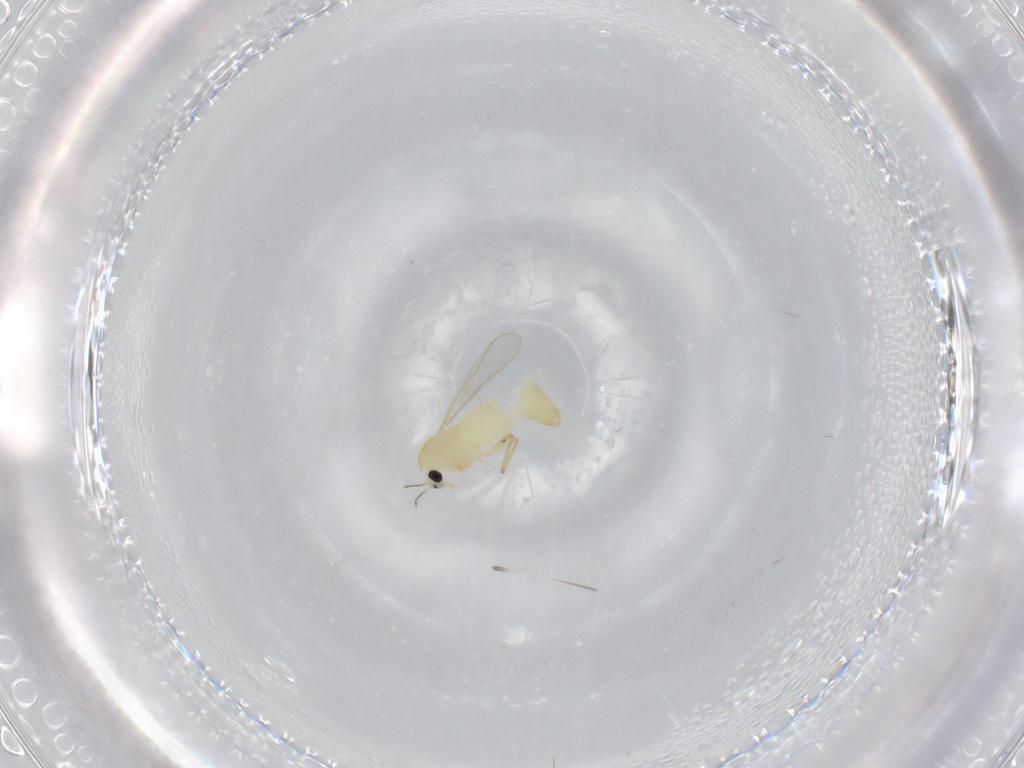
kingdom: Animalia
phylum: Arthropoda
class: Insecta
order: Diptera
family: Chironomidae
